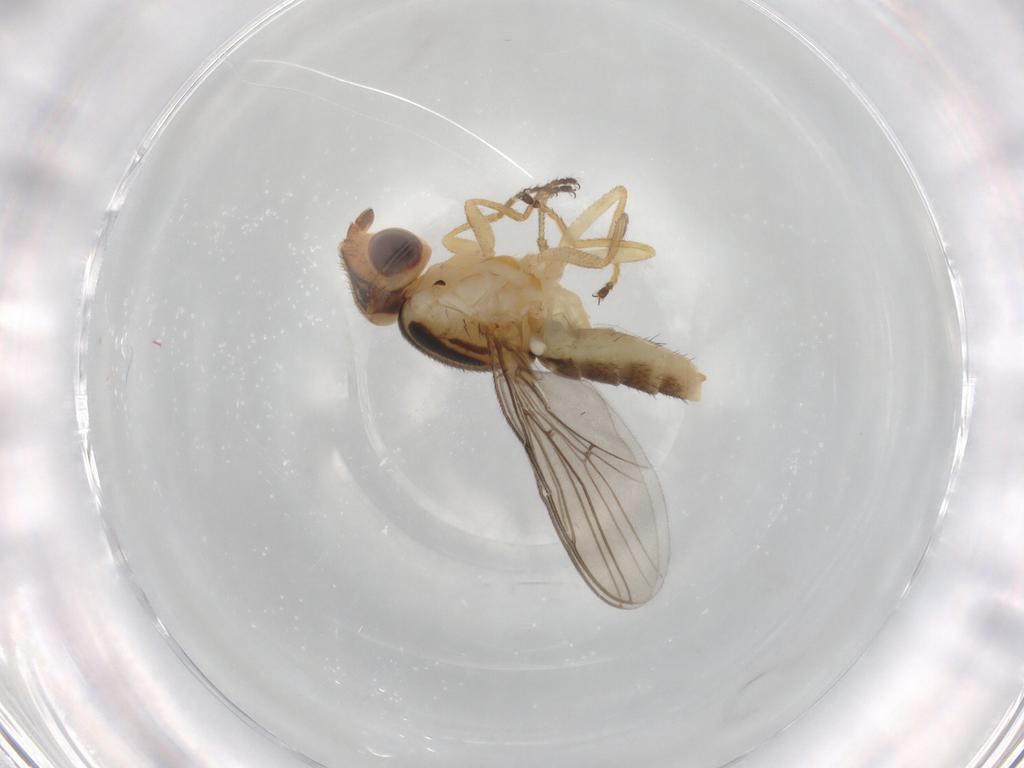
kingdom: Animalia
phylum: Arthropoda
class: Insecta
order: Diptera
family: Chloropidae
